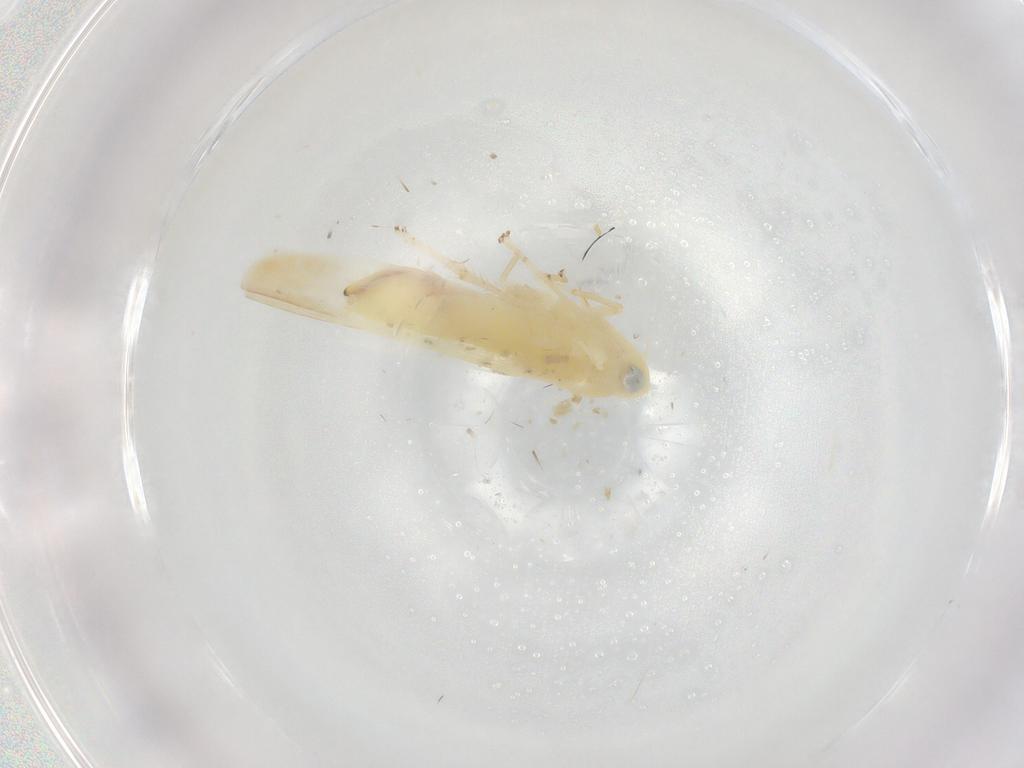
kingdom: Animalia
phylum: Arthropoda
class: Insecta
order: Hemiptera
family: Cicadellidae
